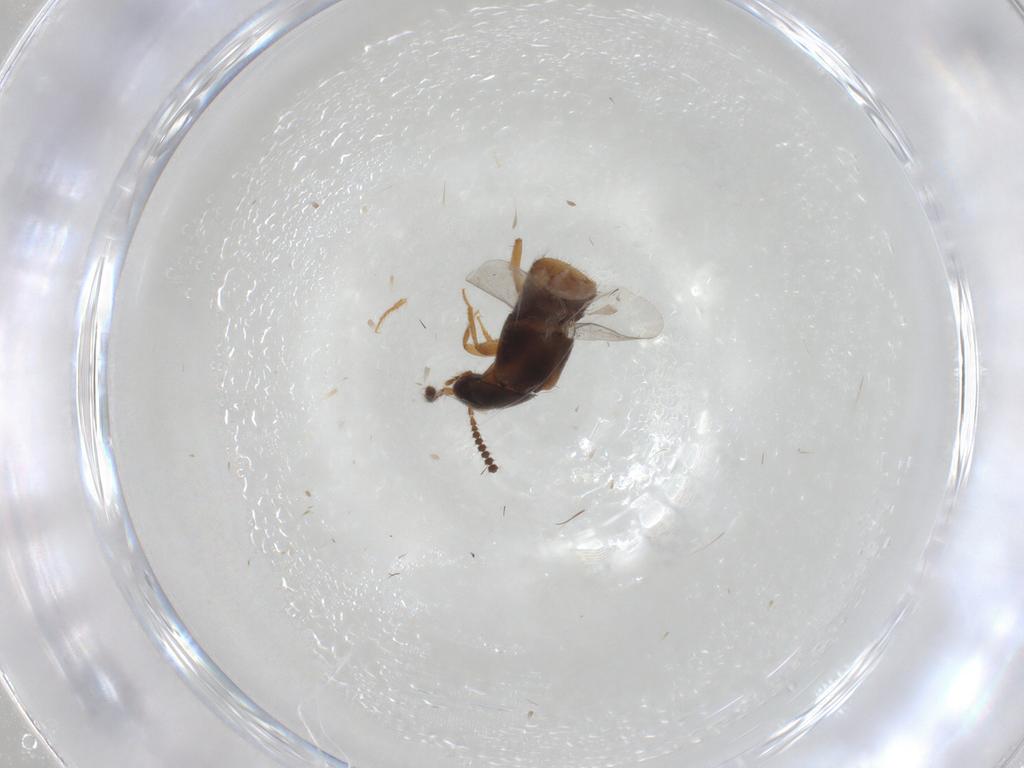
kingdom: Animalia
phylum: Arthropoda
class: Insecta
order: Coleoptera
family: Staphylinidae
